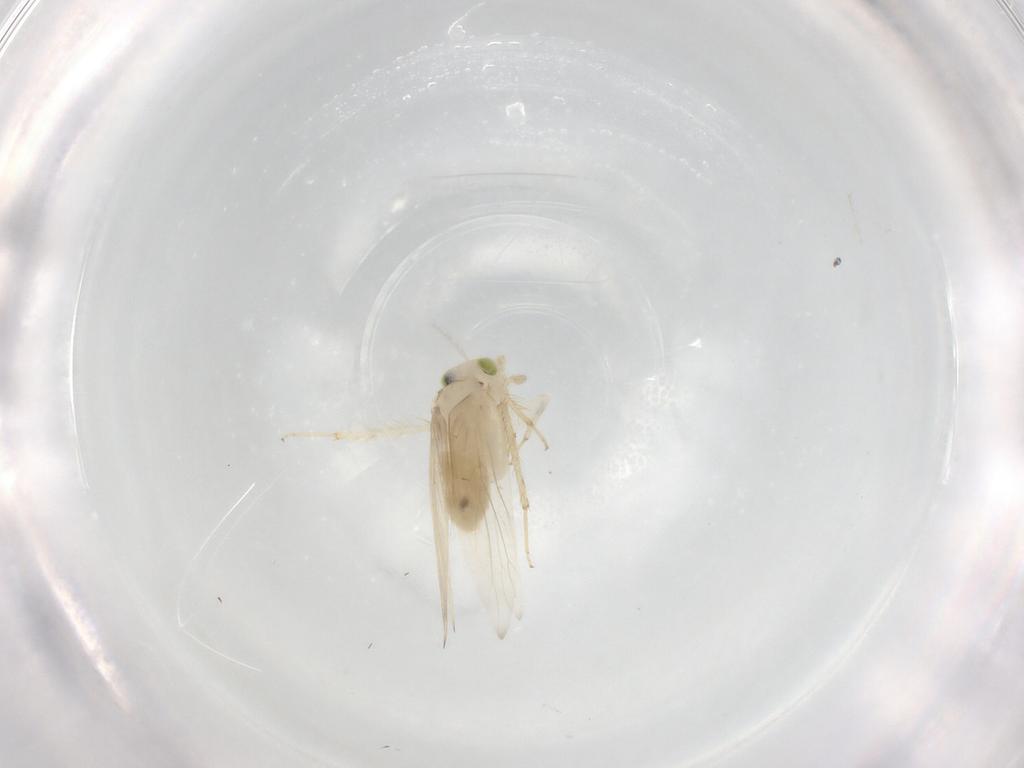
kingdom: Animalia
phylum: Arthropoda
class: Insecta
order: Psocodea
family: Lepidopsocidae
